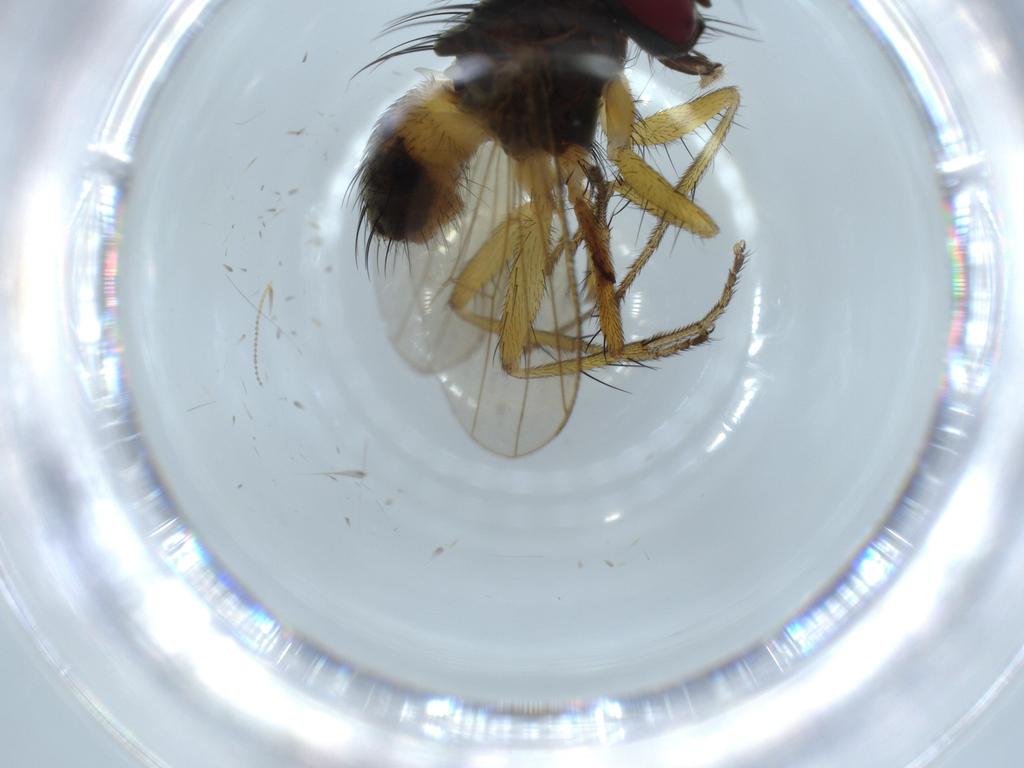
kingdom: Animalia
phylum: Arthropoda
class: Insecta
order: Diptera
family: Muscidae
